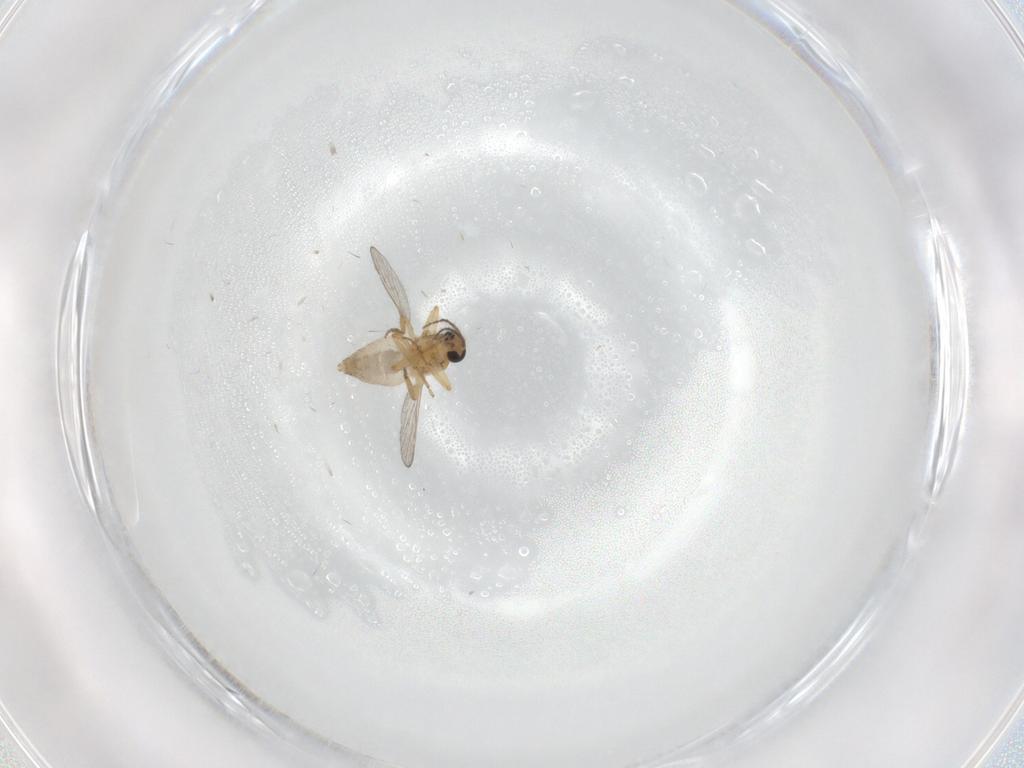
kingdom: Animalia
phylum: Arthropoda
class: Insecta
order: Diptera
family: Ceratopogonidae
